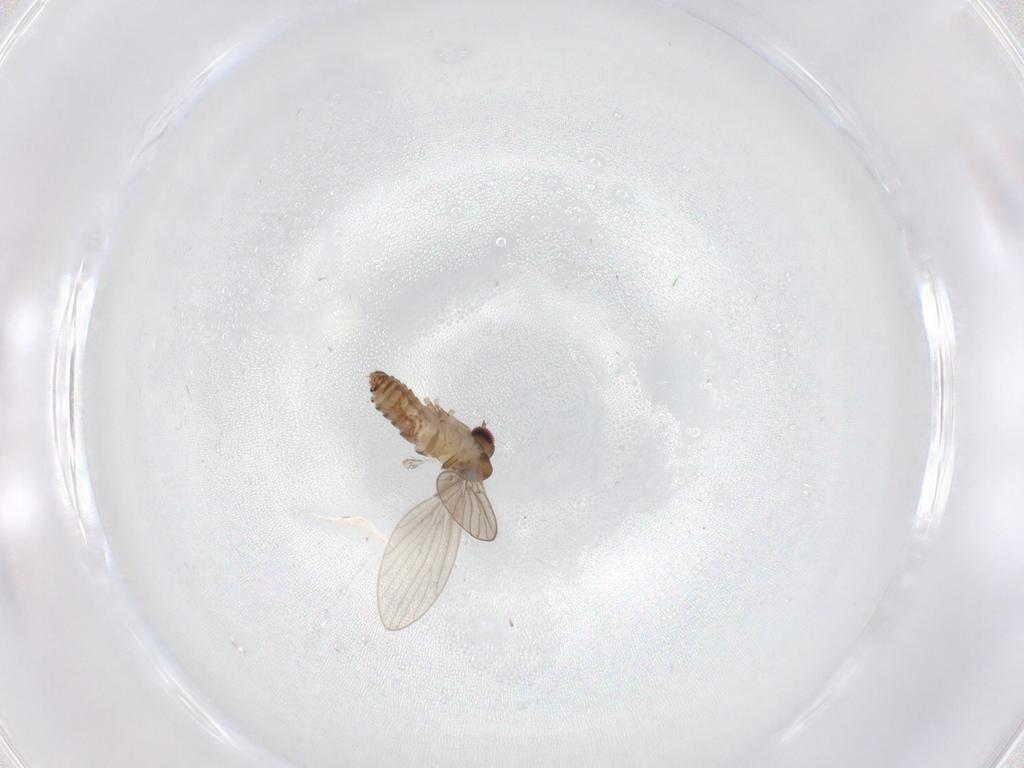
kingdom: Animalia
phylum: Arthropoda
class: Insecta
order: Diptera
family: Psychodidae
